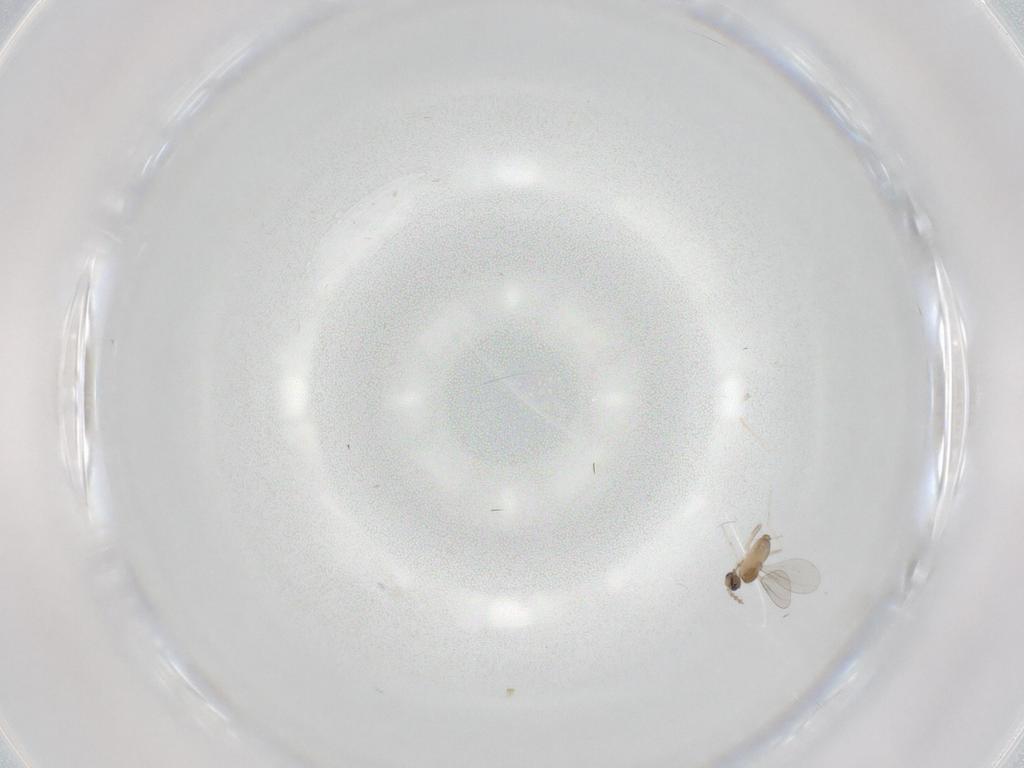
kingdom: Animalia
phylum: Arthropoda
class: Insecta
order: Diptera
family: Cecidomyiidae
